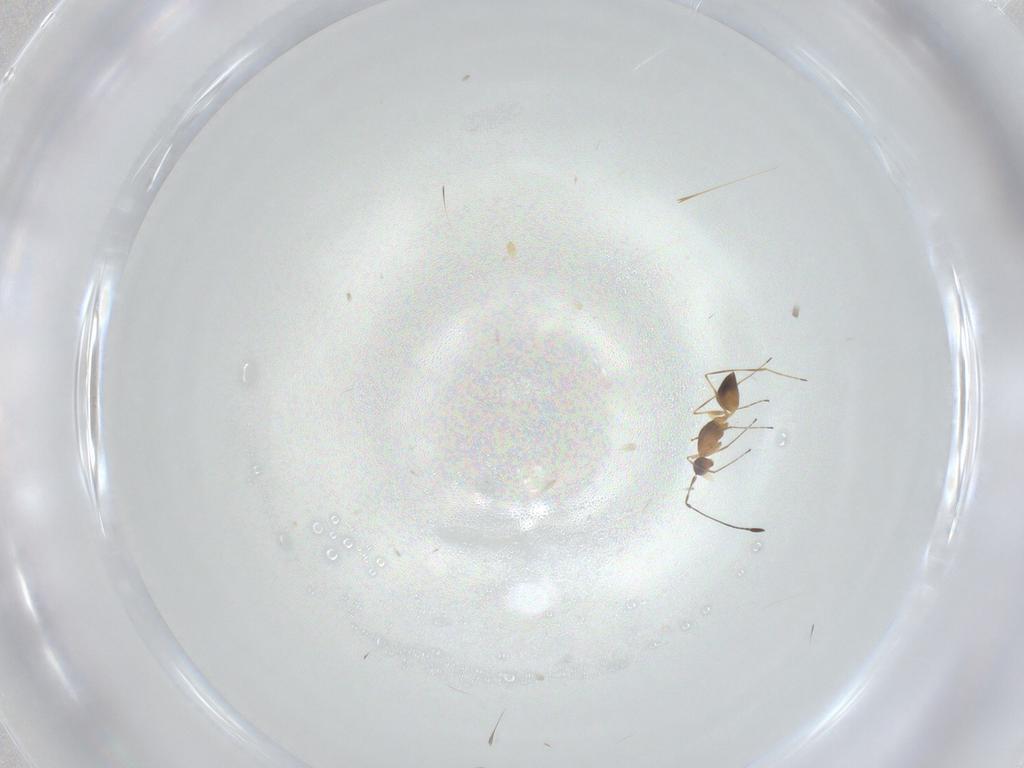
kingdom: Animalia
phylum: Arthropoda
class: Insecta
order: Hymenoptera
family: Mymaridae
